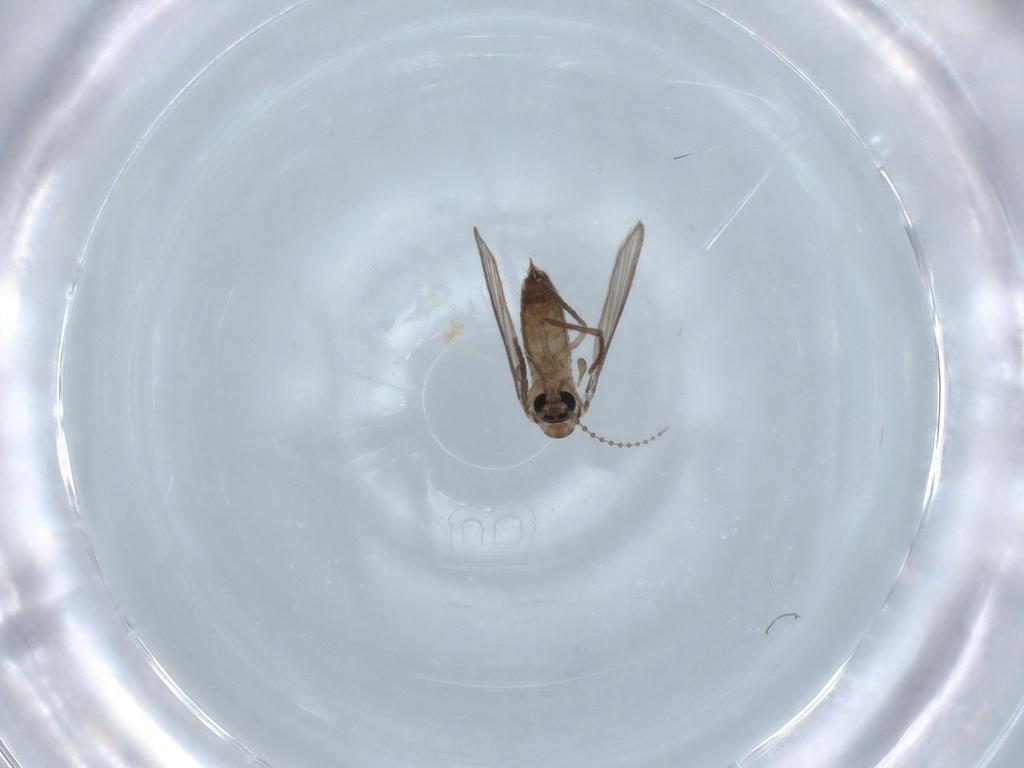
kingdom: Animalia
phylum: Arthropoda
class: Insecta
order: Diptera
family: Psychodidae
